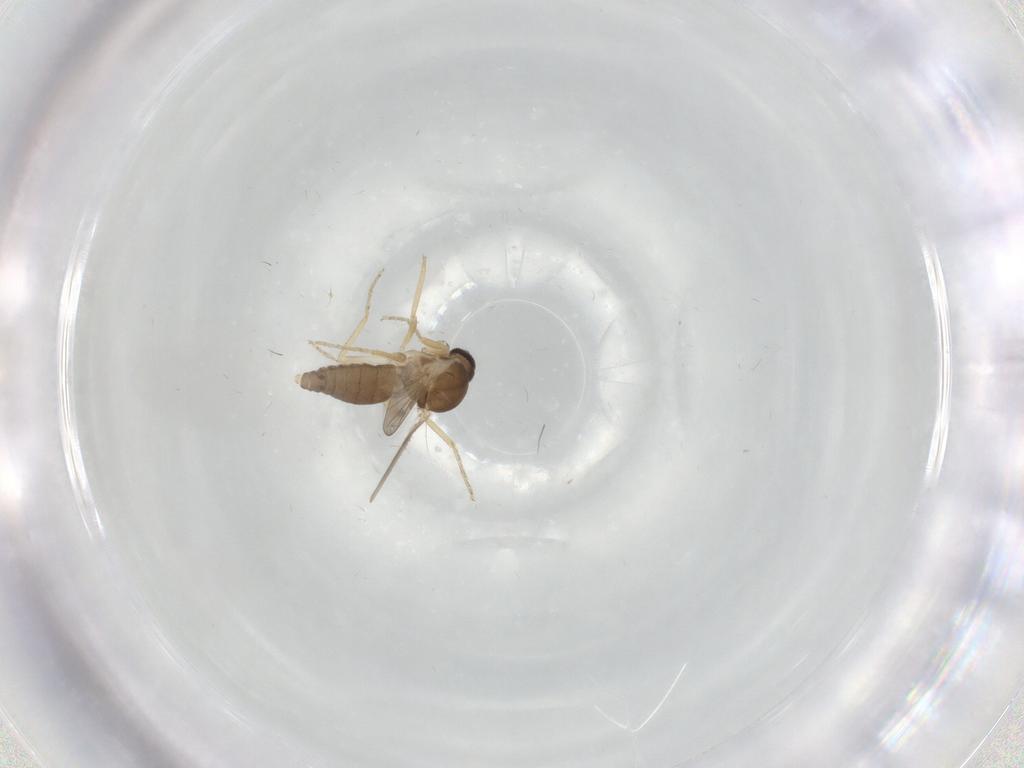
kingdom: Animalia
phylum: Arthropoda
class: Insecta
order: Diptera
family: Ceratopogonidae
